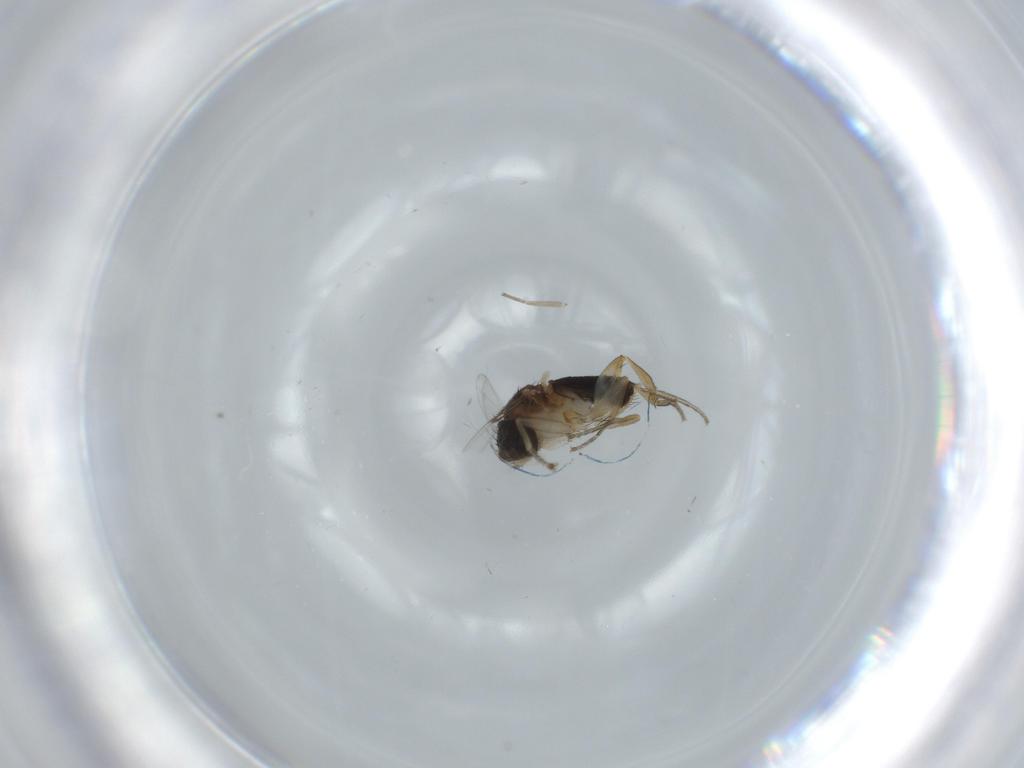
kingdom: Animalia
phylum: Arthropoda
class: Insecta
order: Diptera
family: Phoridae
